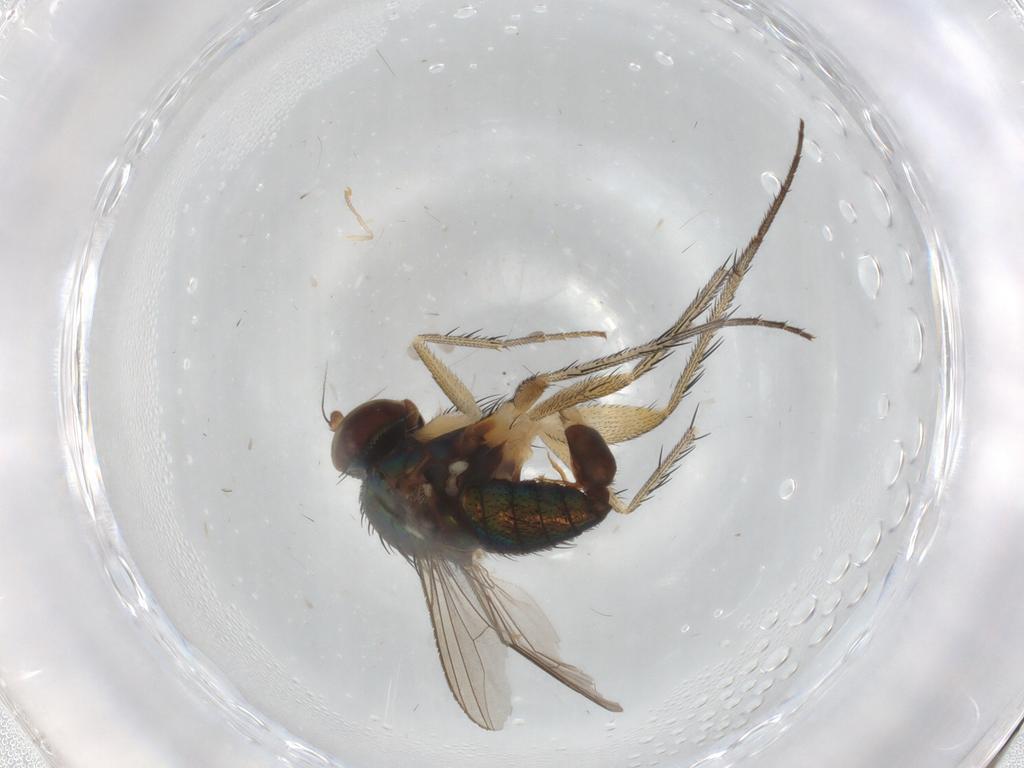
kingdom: Animalia
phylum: Arthropoda
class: Insecta
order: Diptera
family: Dolichopodidae
